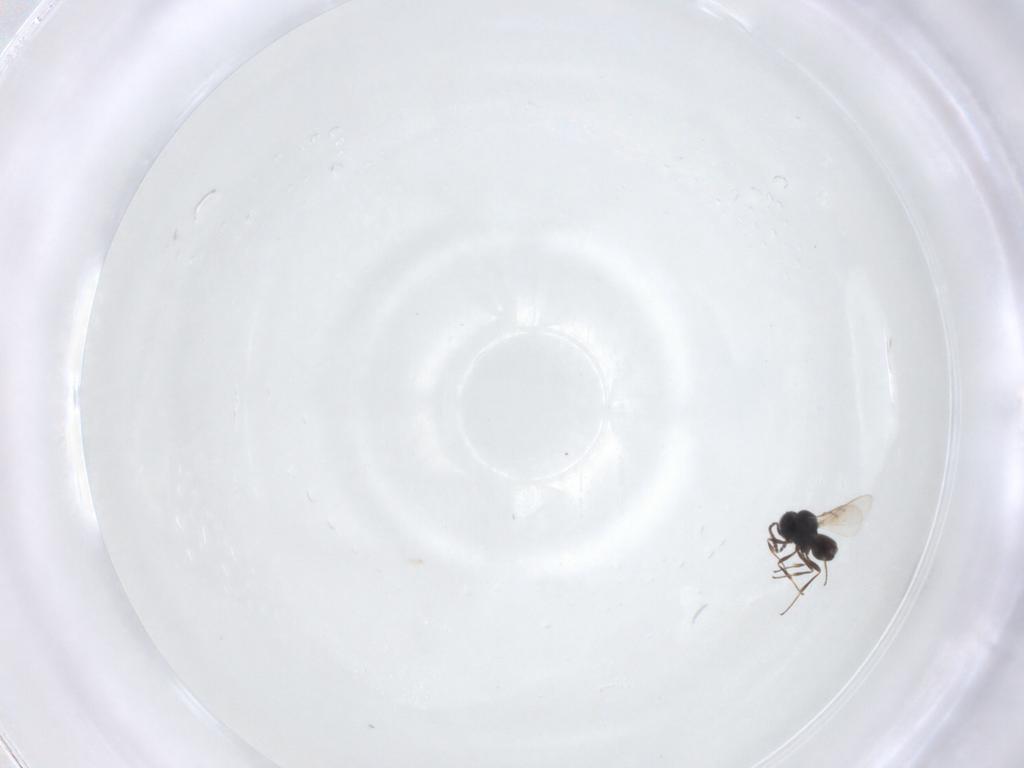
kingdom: Animalia
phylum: Arthropoda
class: Insecta
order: Hymenoptera
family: Scelionidae
